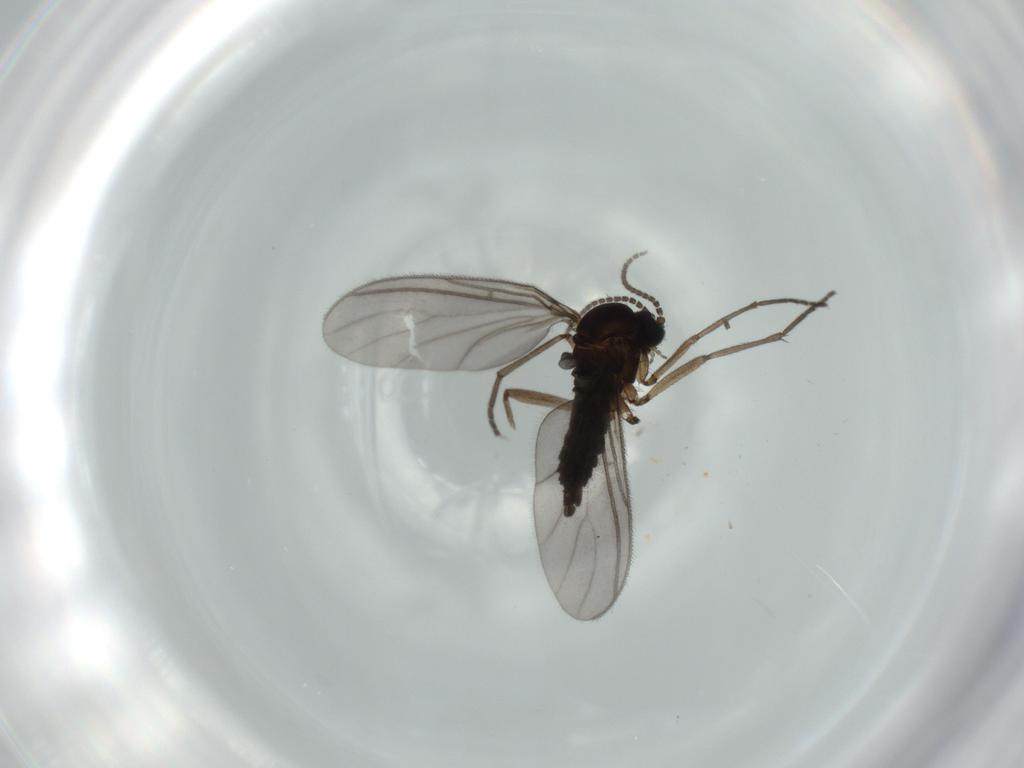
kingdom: Animalia
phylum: Arthropoda
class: Insecta
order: Diptera
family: Sciaridae
